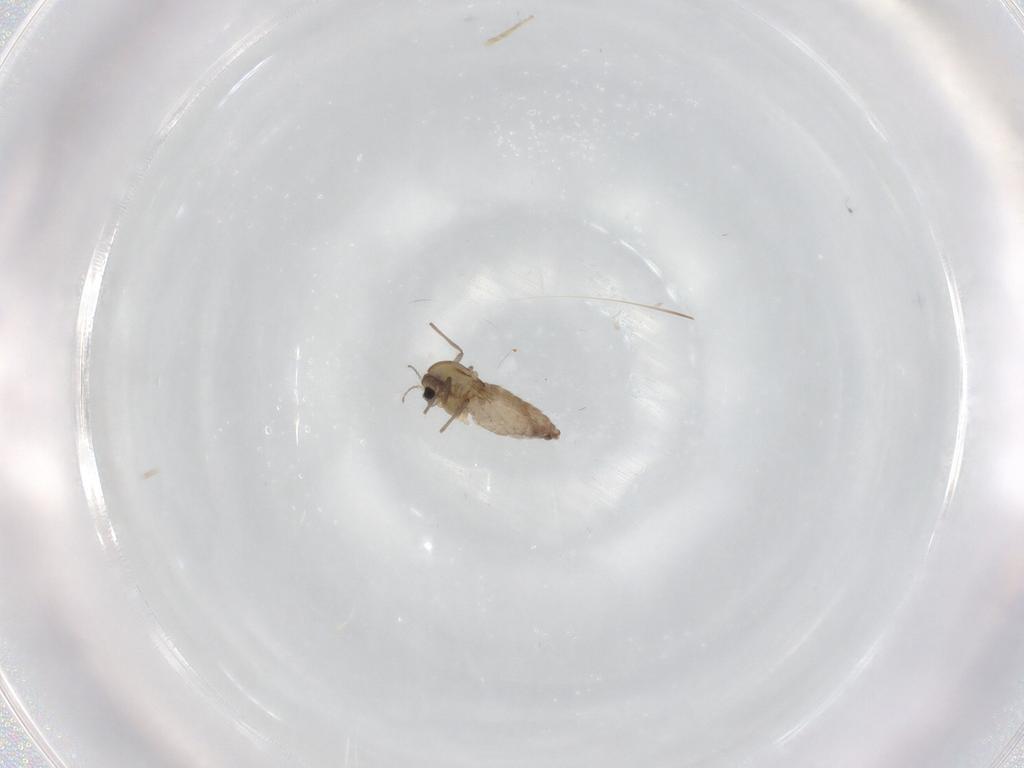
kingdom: Animalia
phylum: Arthropoda
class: Insecta
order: Diptera
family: Chironomidae
